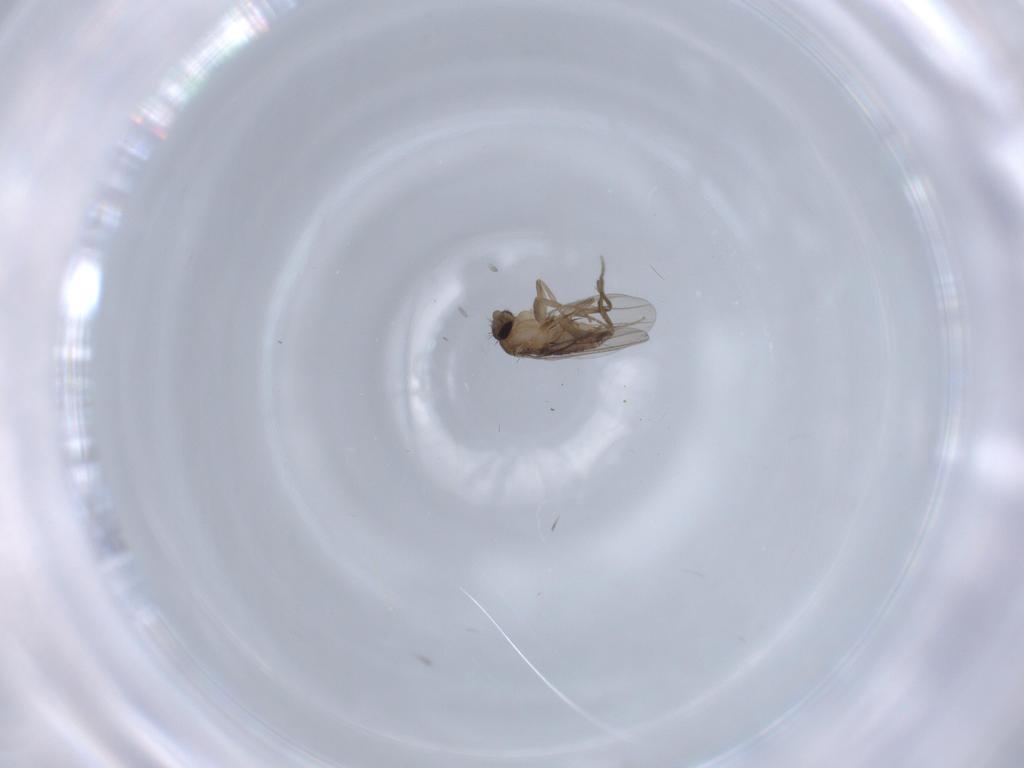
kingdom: Animalia
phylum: Arthropoda
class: Insecta
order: Diptera
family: Phoridae
